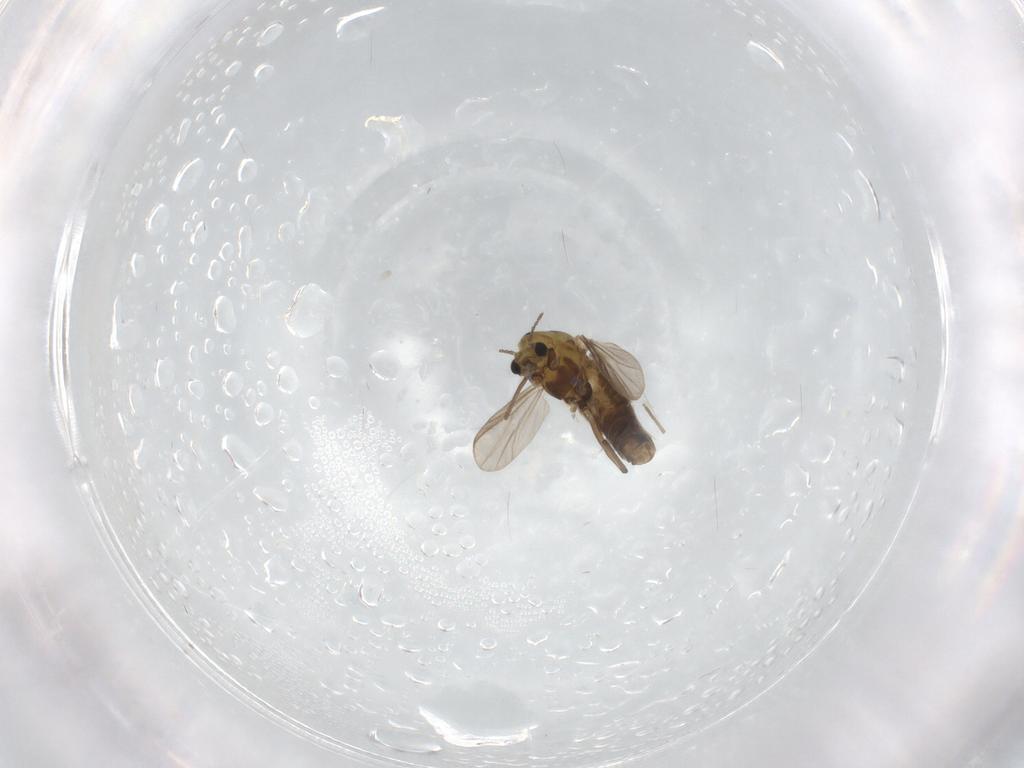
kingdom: Animalia
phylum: Arthropoda
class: Insecta
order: Diptera
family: Chironomidae
